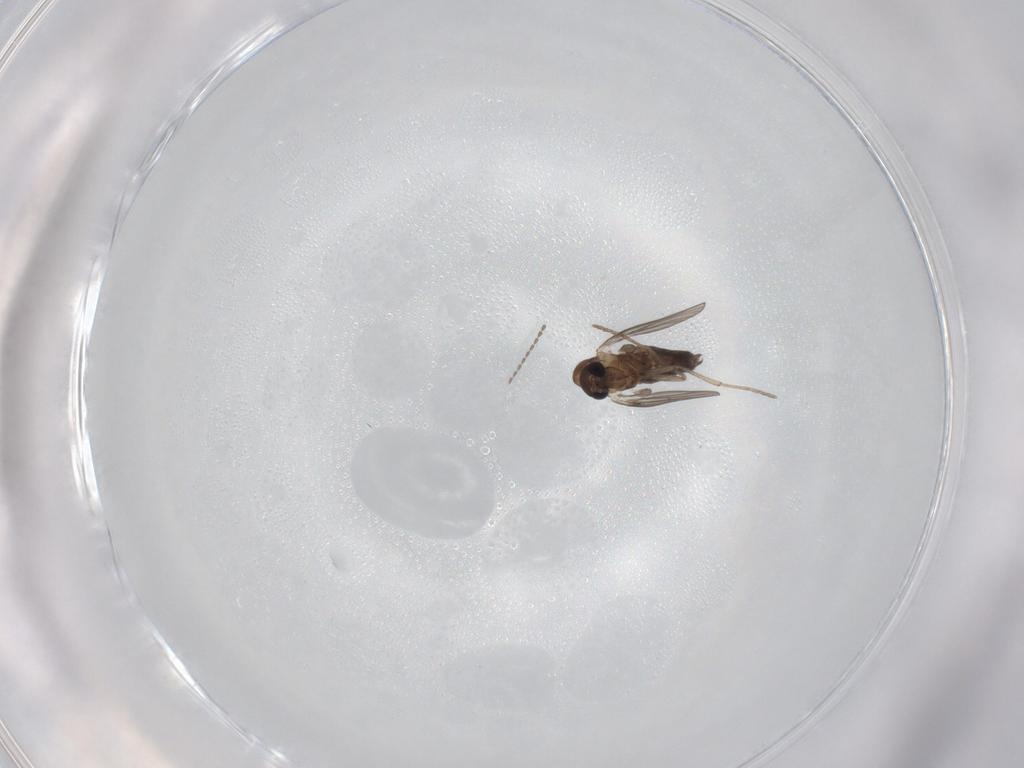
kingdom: Animalia
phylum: Arthropoda
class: Insecta
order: Diptera
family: Psychodidae
